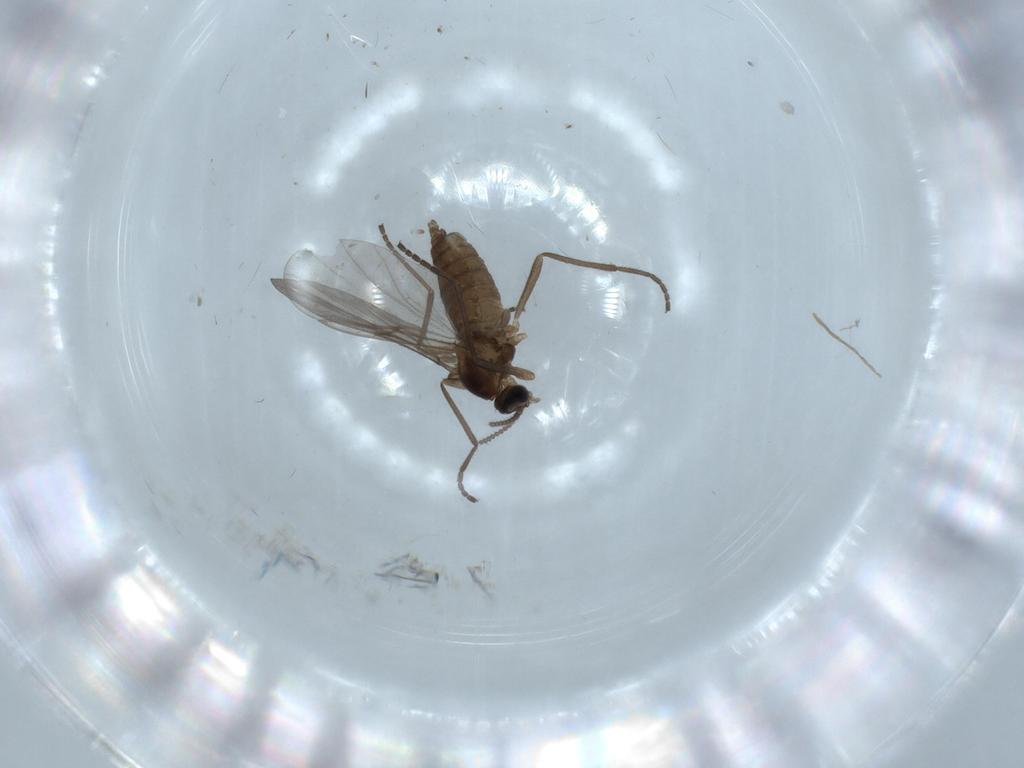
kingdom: Animalia
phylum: Arthropoda
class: Insecta
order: Diptera
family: Cecidomyiidae
